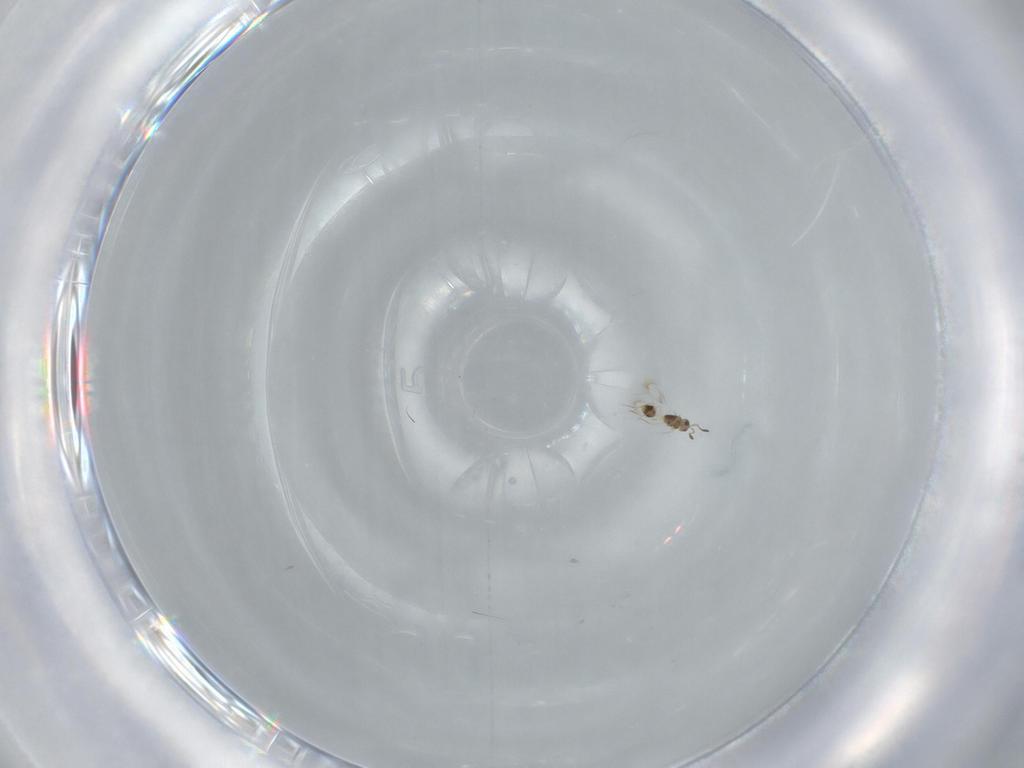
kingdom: Animalia
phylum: Arthropoda
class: Insecta
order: Hymenoptera
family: Formicidae
